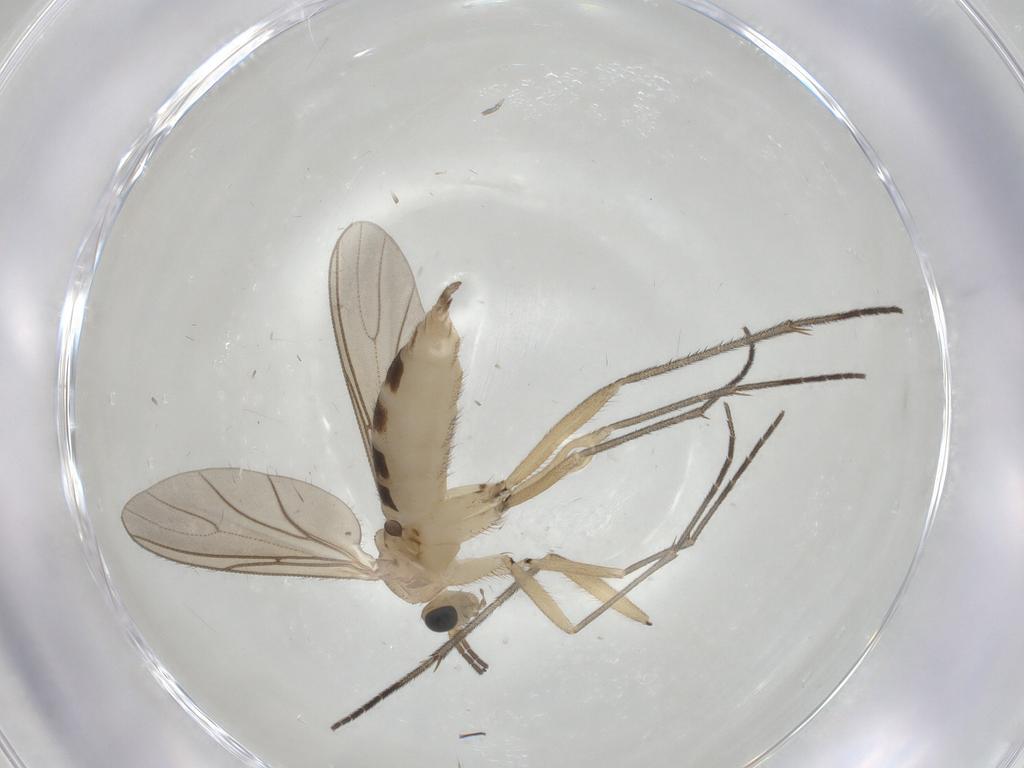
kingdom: Animalia
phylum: Arthropoda
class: Insecta
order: Diptera
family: Sciaridae
